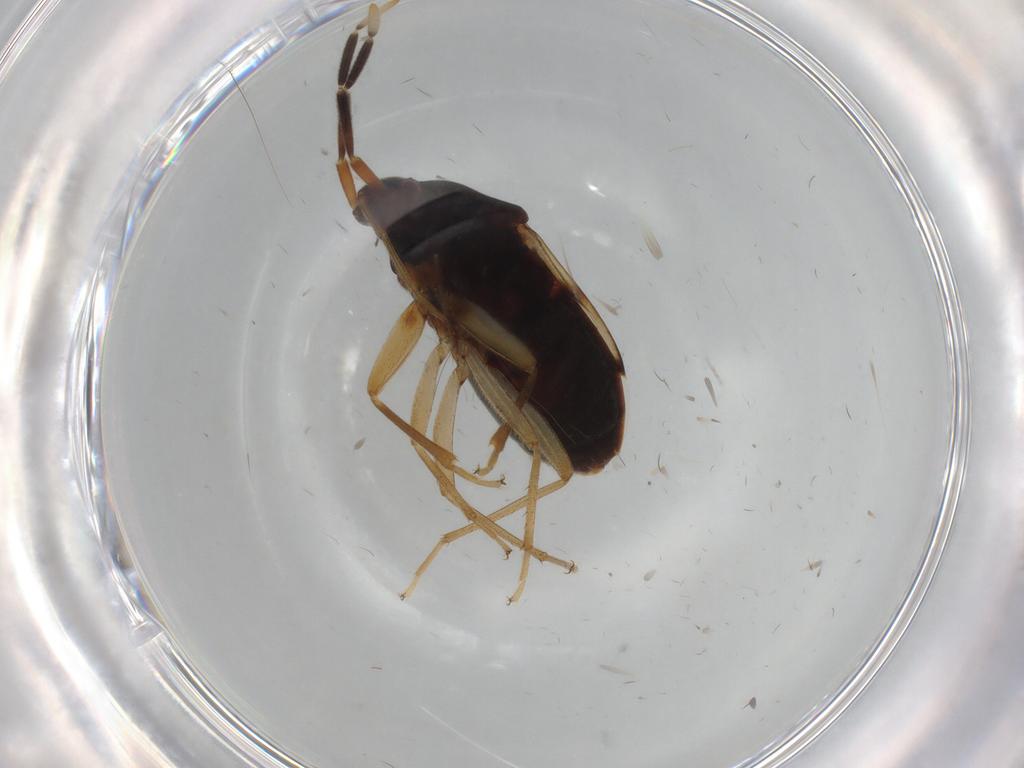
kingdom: Animalia
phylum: Arthropoda
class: Insecta
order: Hemiptera
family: Rhyparochromidae
